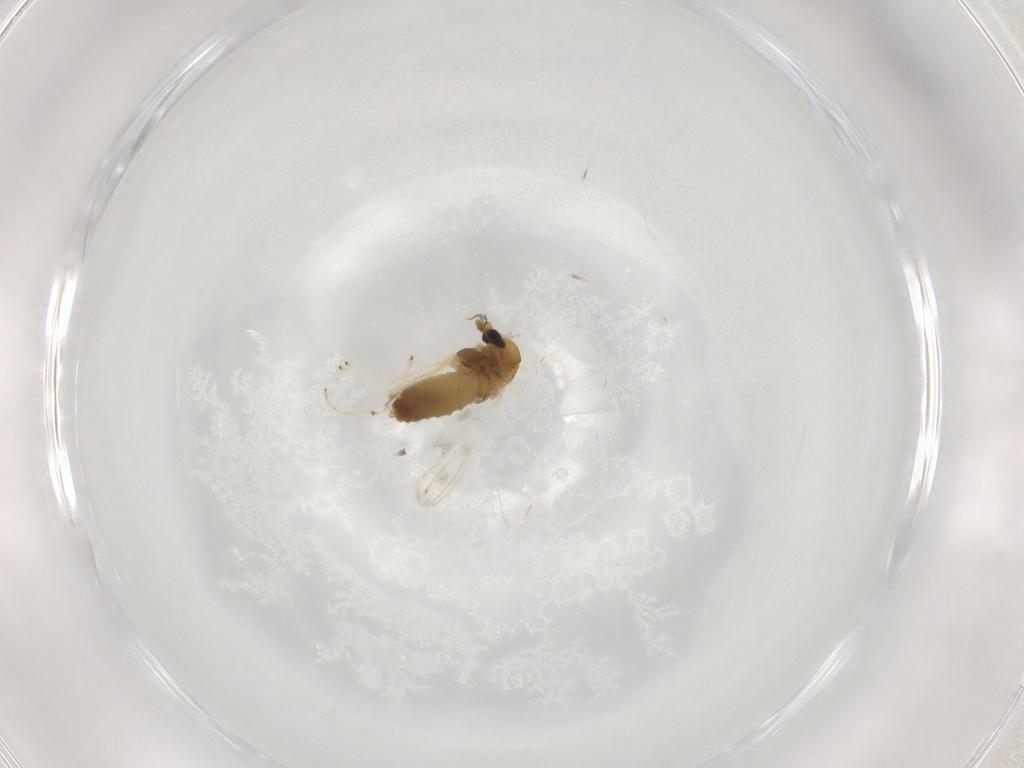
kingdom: Animalia
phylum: Arthropoda
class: Insecta
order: Diptera
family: Chironomidae
